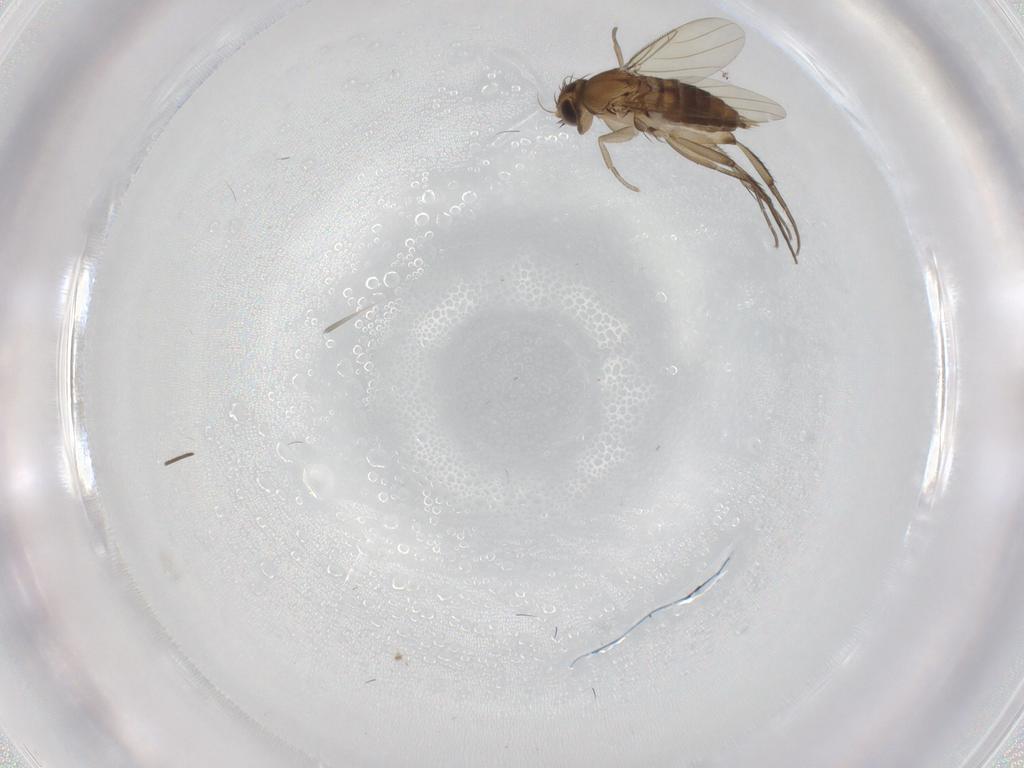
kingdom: Animalia
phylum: Arthropoda
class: Insecta
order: Diptera
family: Phoridae
